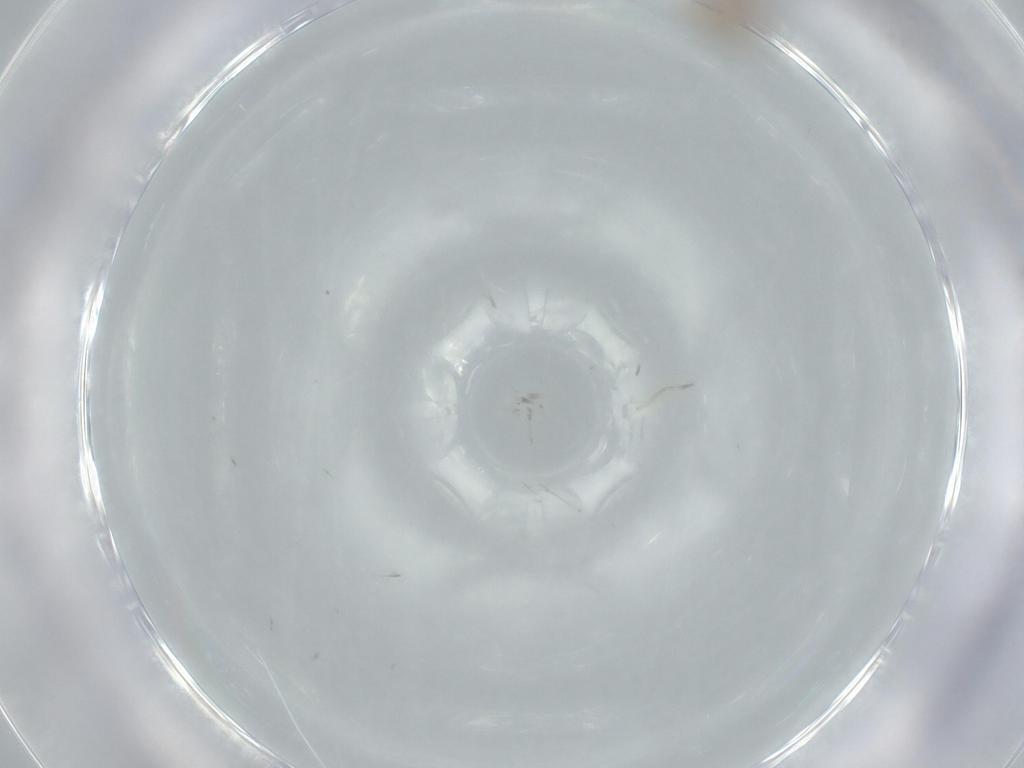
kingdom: Animalia
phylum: Arthropoda
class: Insecta
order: Diptera
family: Phoridae
